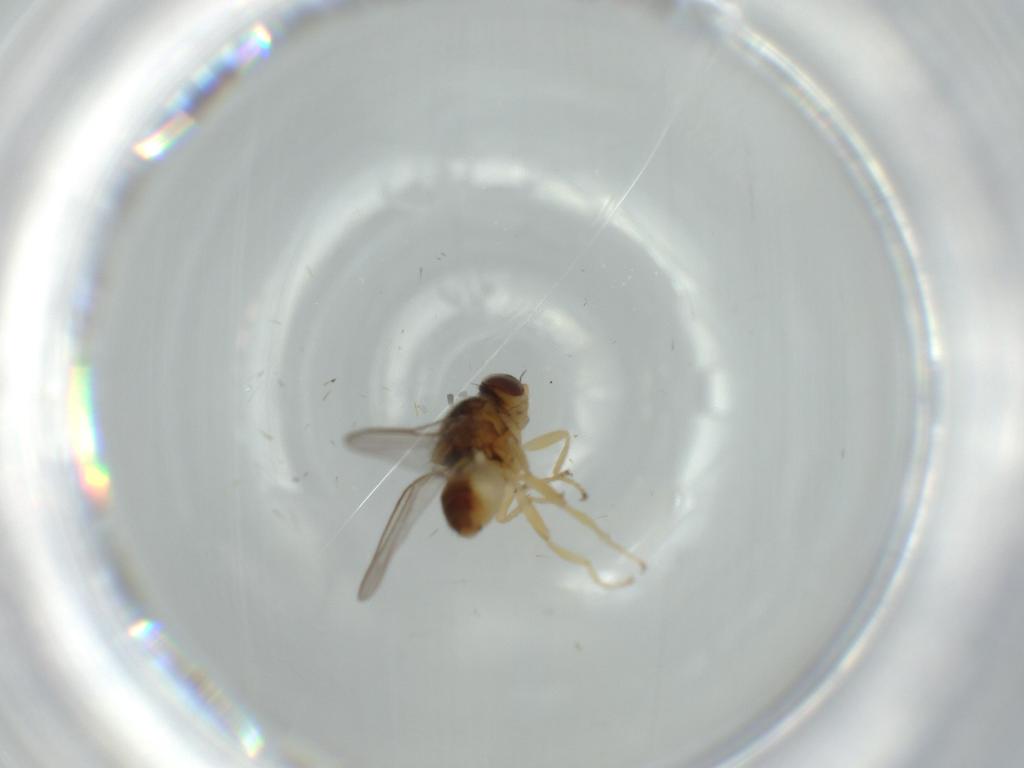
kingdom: Animalia
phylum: Arthropoda
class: Insecta
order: Diptera
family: Chloropidae
